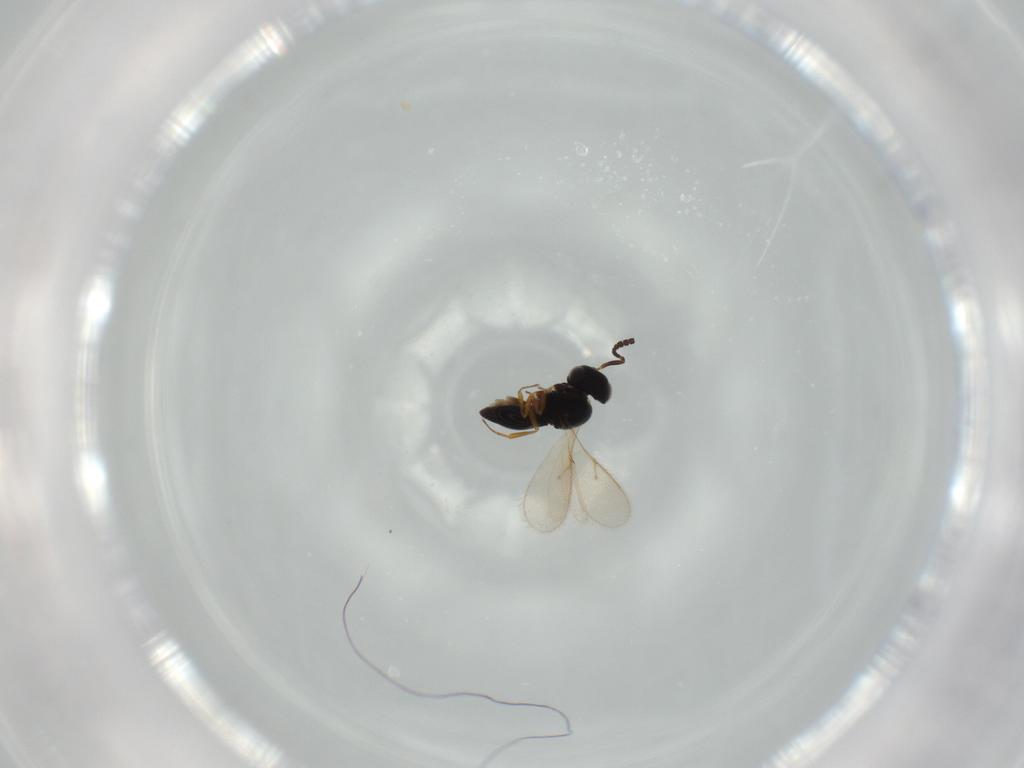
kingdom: Animalia
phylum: Arthropoda
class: Insecta
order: Hymenoptera
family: Scelionidae
